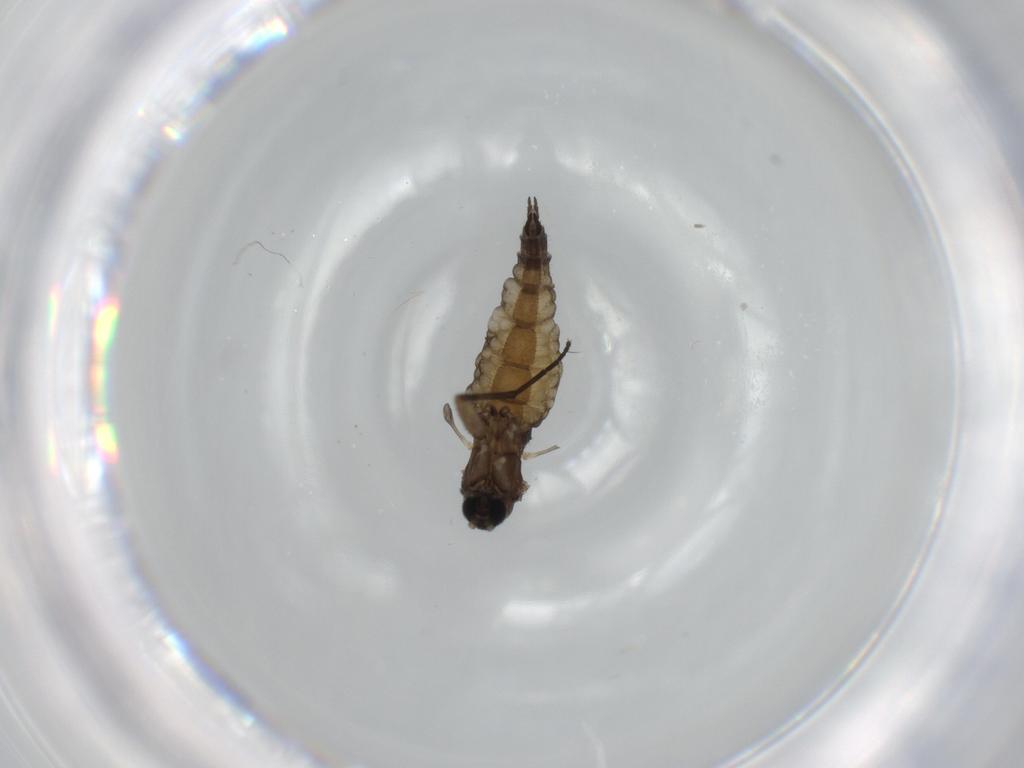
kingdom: Animalia
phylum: Arthropoda
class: Insecta
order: Diptera
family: Sciaridae
